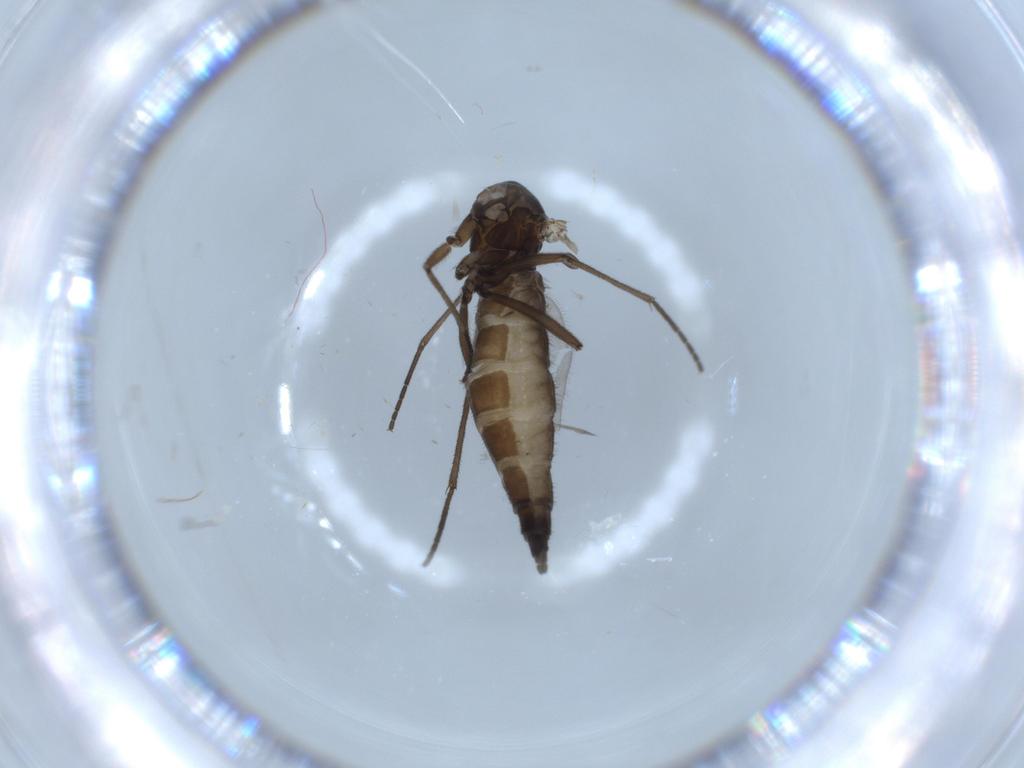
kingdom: Animalia
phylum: Arthropoda
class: Insecta
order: Diptera
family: Sciaridae
